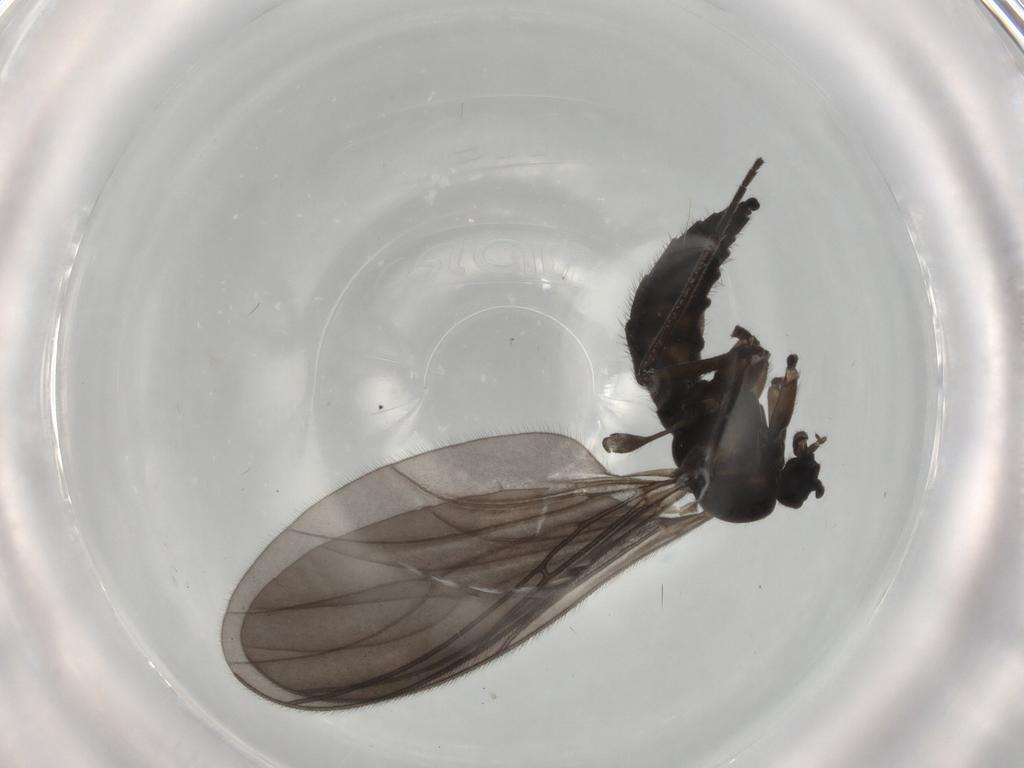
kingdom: Animalia
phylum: Arthropoda
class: Insecta
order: Diptera
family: Sciaridae
